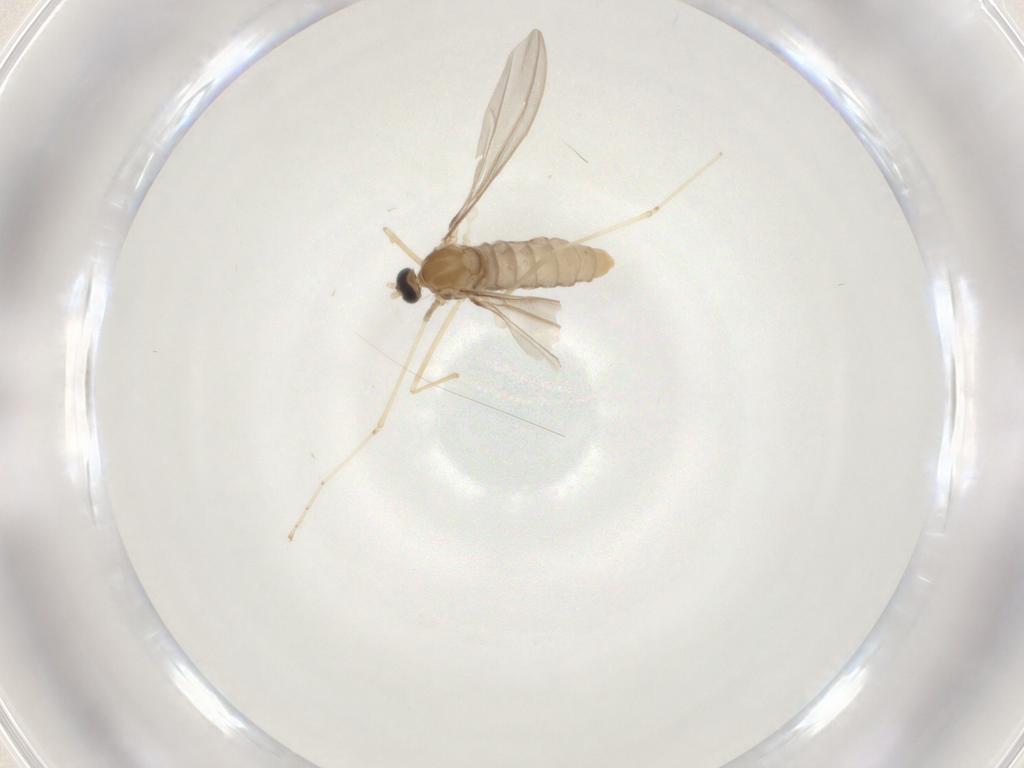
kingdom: Animalia
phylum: Arthropoda
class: Insecta
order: Diptera
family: Cecidomyiidae
